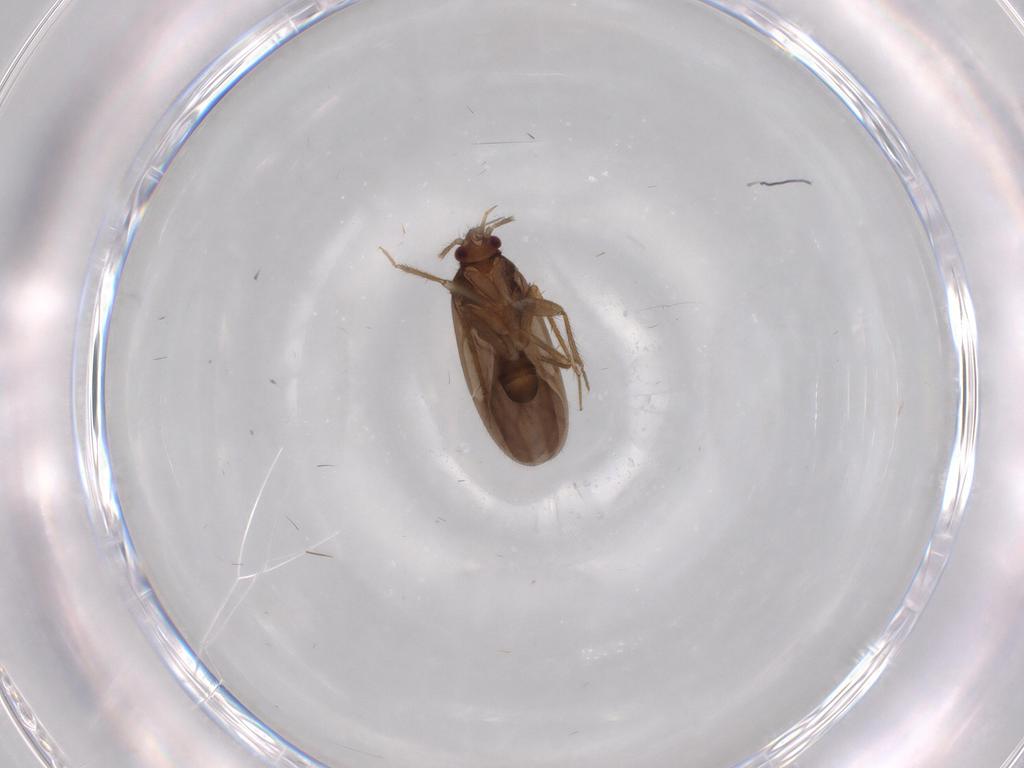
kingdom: Animalia
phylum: Arthropoda
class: Insecta
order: Hemiptera
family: Ceratocombidae
